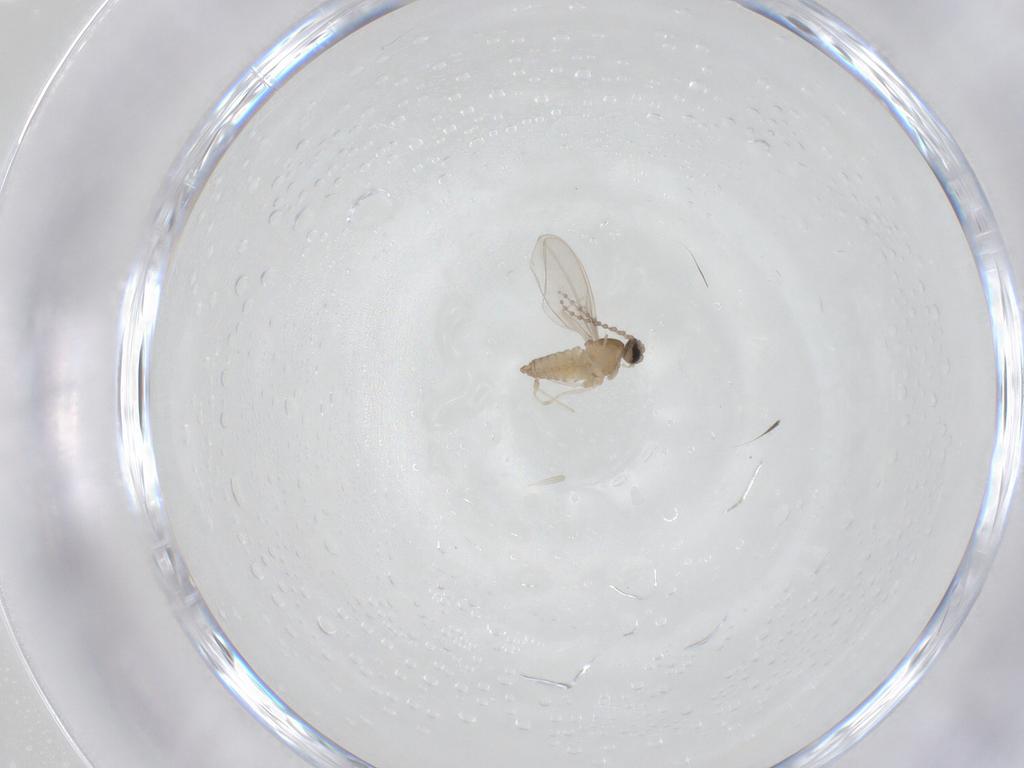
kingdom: Animalia
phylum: Arthropoda
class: Insecta
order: Diptera
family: Cecidomyiidae
